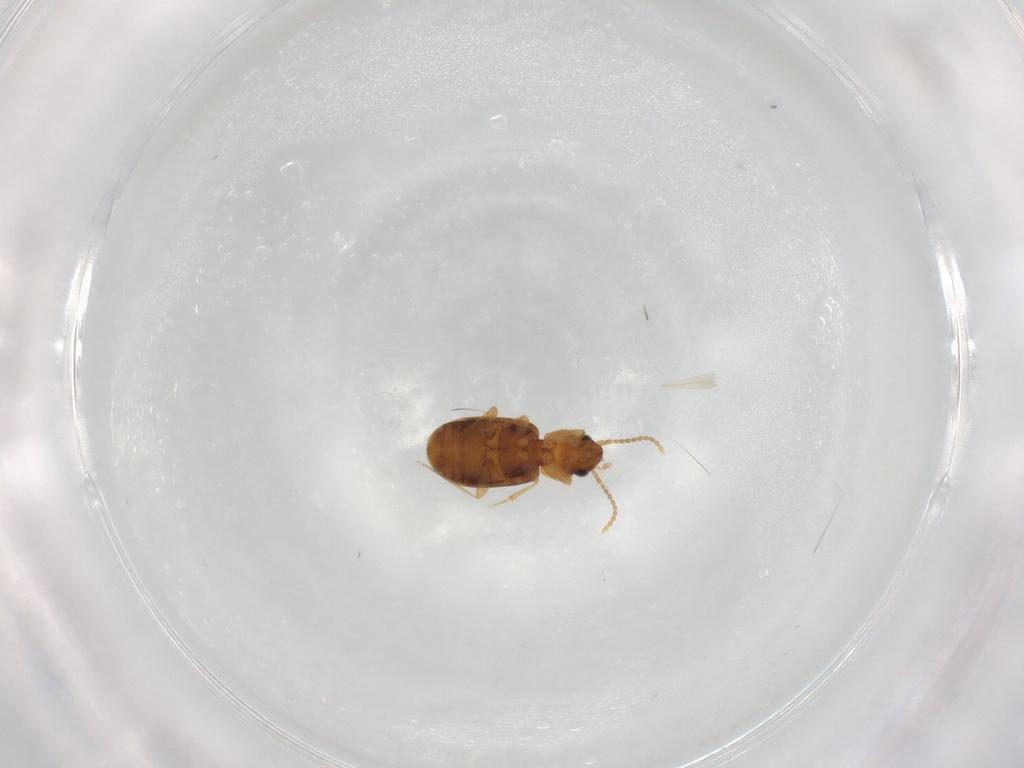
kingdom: Animalia
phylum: Arthropoda
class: Insecta
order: Coleoptera
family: Carabidae
